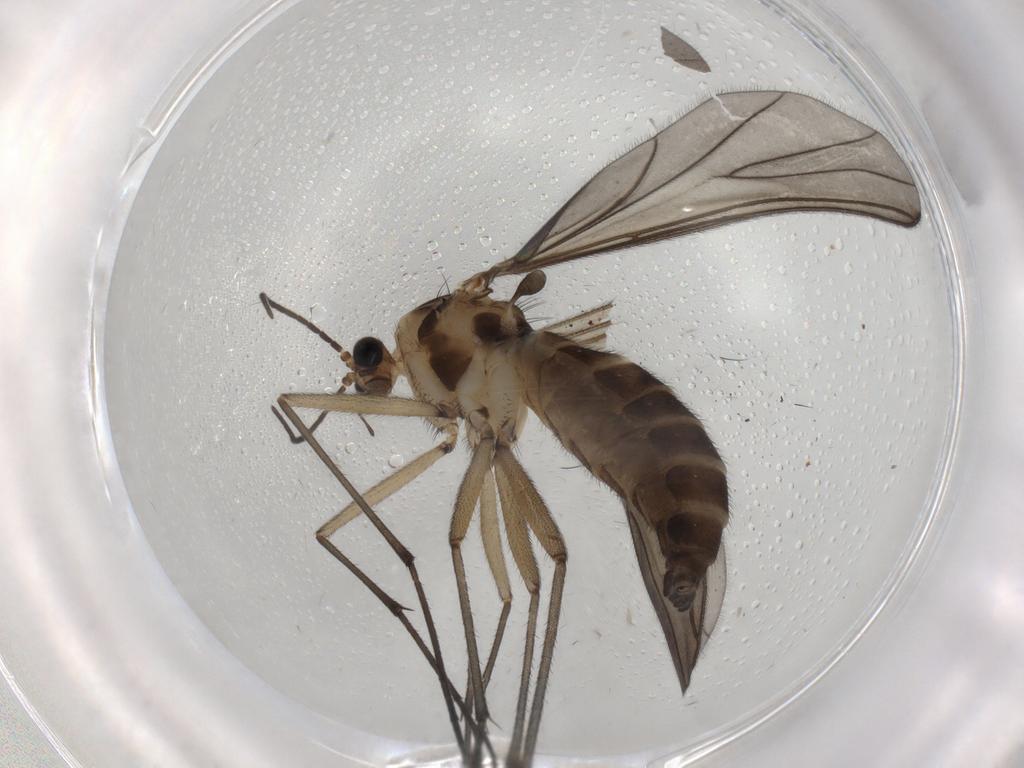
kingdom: Animalia
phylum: Arthropoda
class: Insecta
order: Diptera
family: Sciaridae
